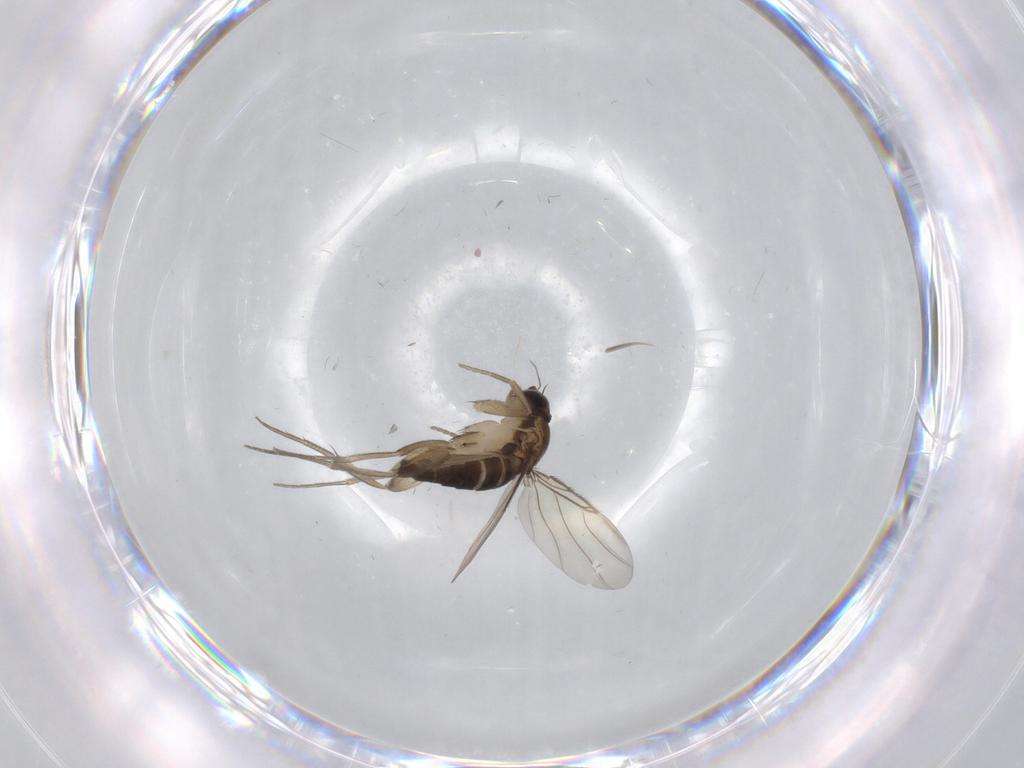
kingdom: Animalia
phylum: Arthropoda
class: Insecta
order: Diptera
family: Phoridae
